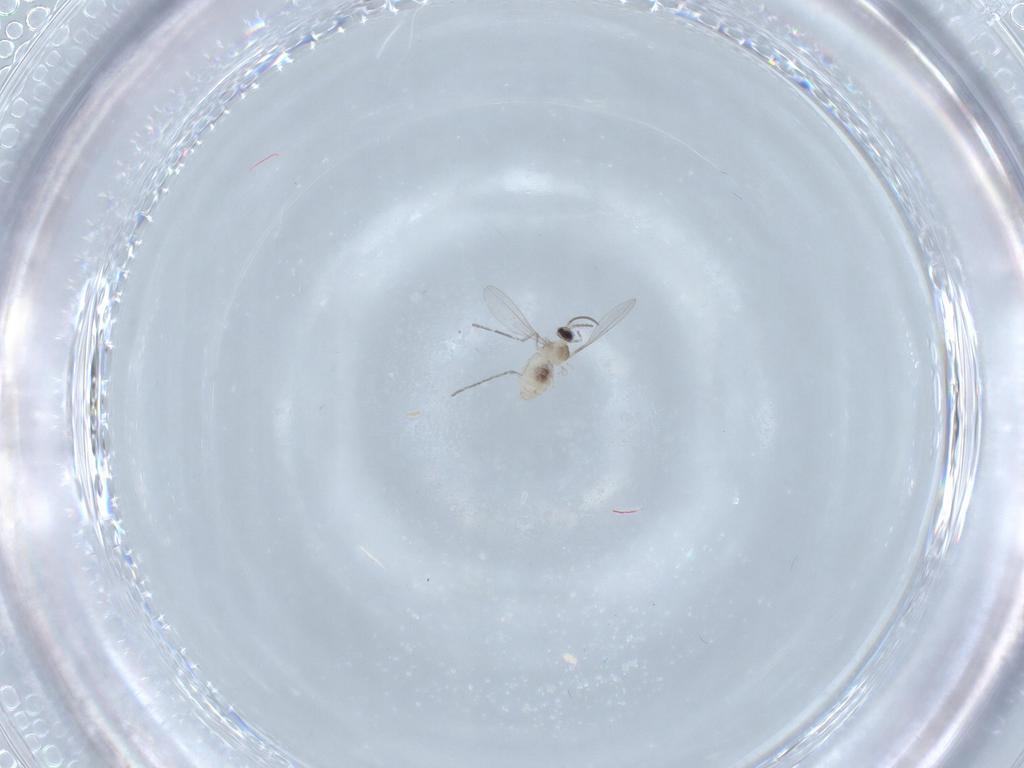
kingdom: Animalia
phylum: Arthropoda
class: Insecta
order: Diptera
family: Cecidomyiidae
